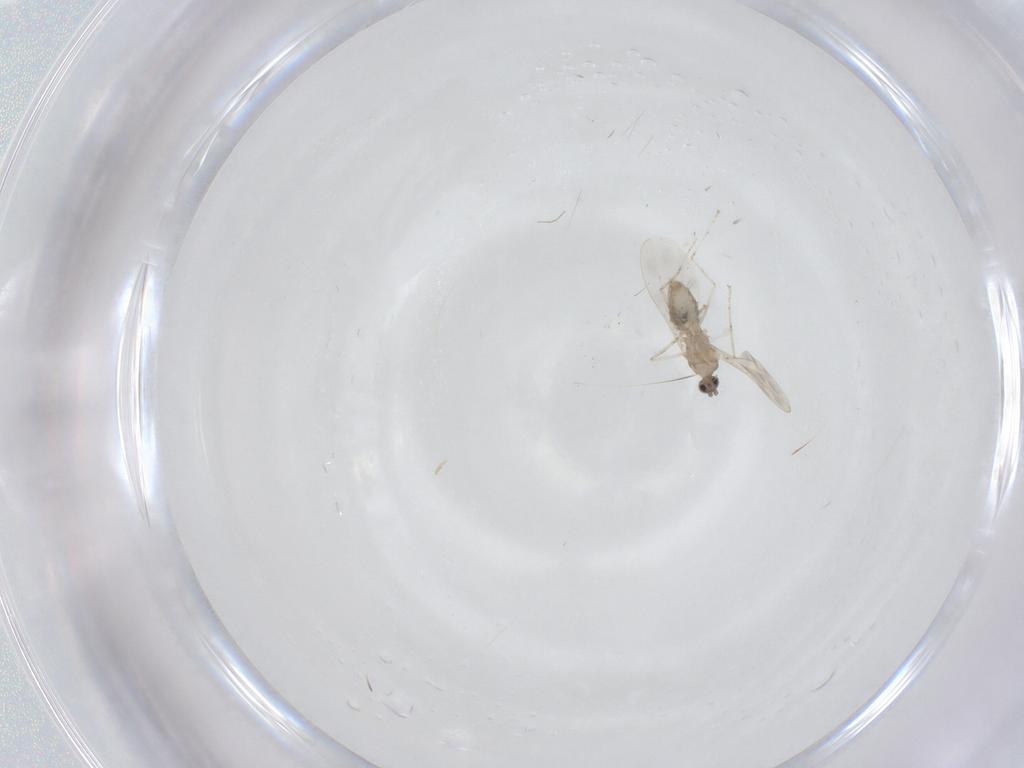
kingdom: Animalia
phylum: Arthropoda
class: Insecta
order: Diptera
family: Cecidomyiidae
